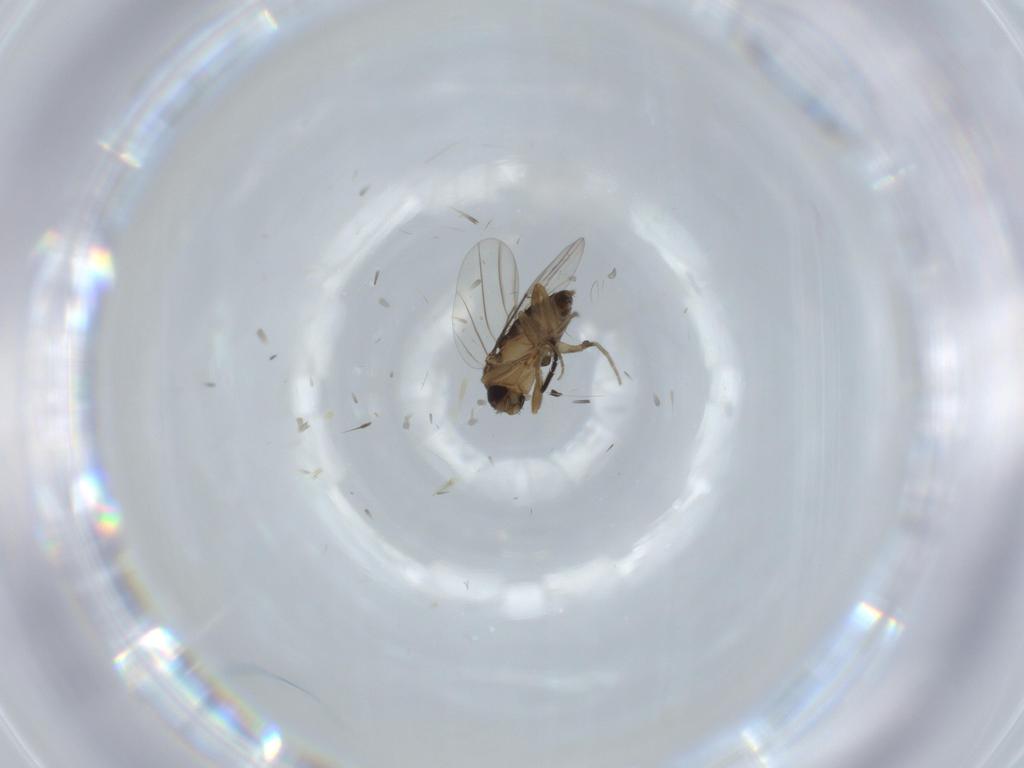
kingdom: Animalia
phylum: Arthropoda
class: Insecta
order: Diptera
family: Phoridae
